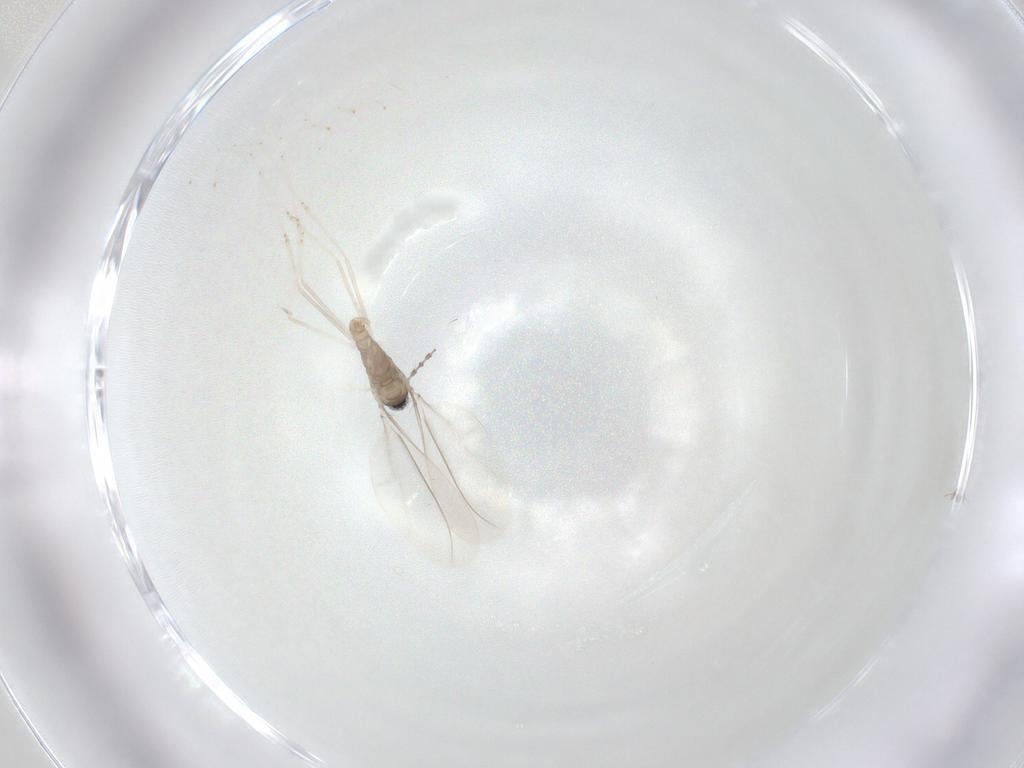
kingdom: Animalia
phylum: Arthropoda
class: Insecta
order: Diptera
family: Cecidomyiidae
